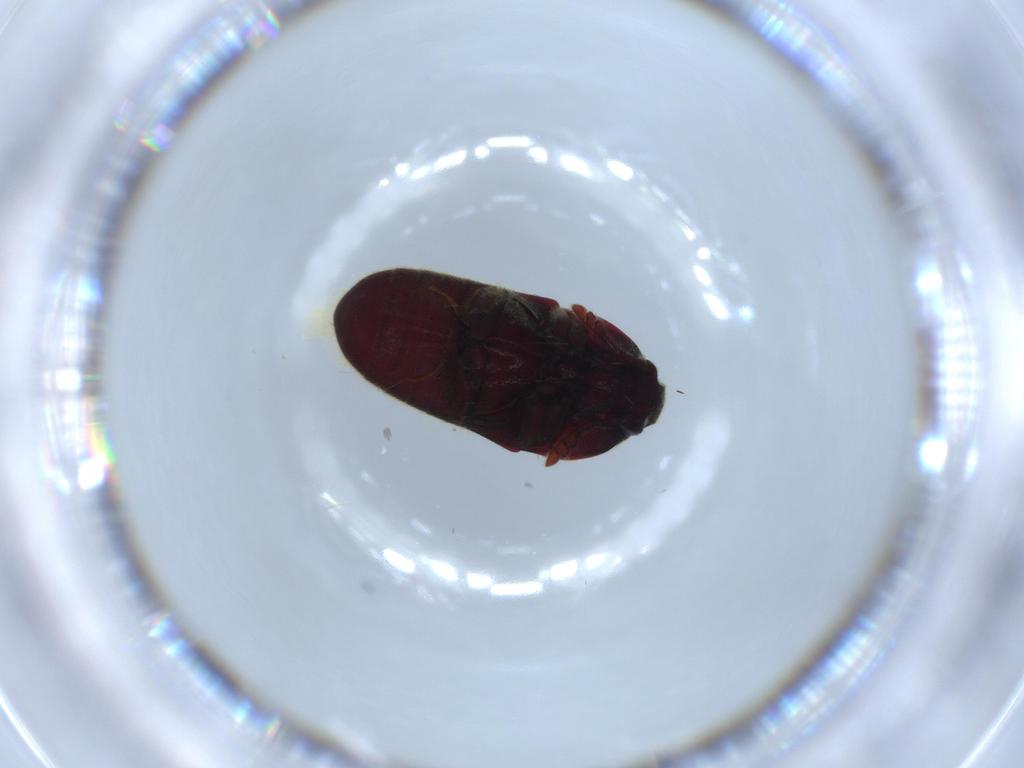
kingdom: Animalia
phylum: Arthropoda
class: Insecta
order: Coleoptera
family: Throscidae
